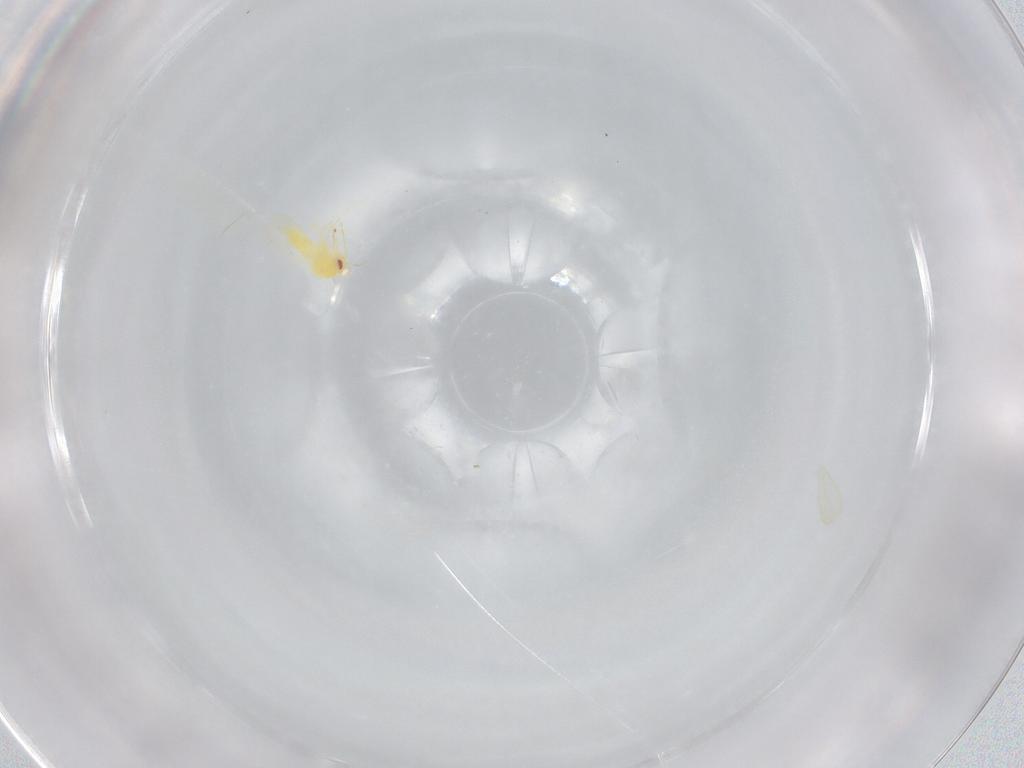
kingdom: Animalia
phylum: Arthropoda
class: Insecta
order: Hemiptera
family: Aleyrodidae
